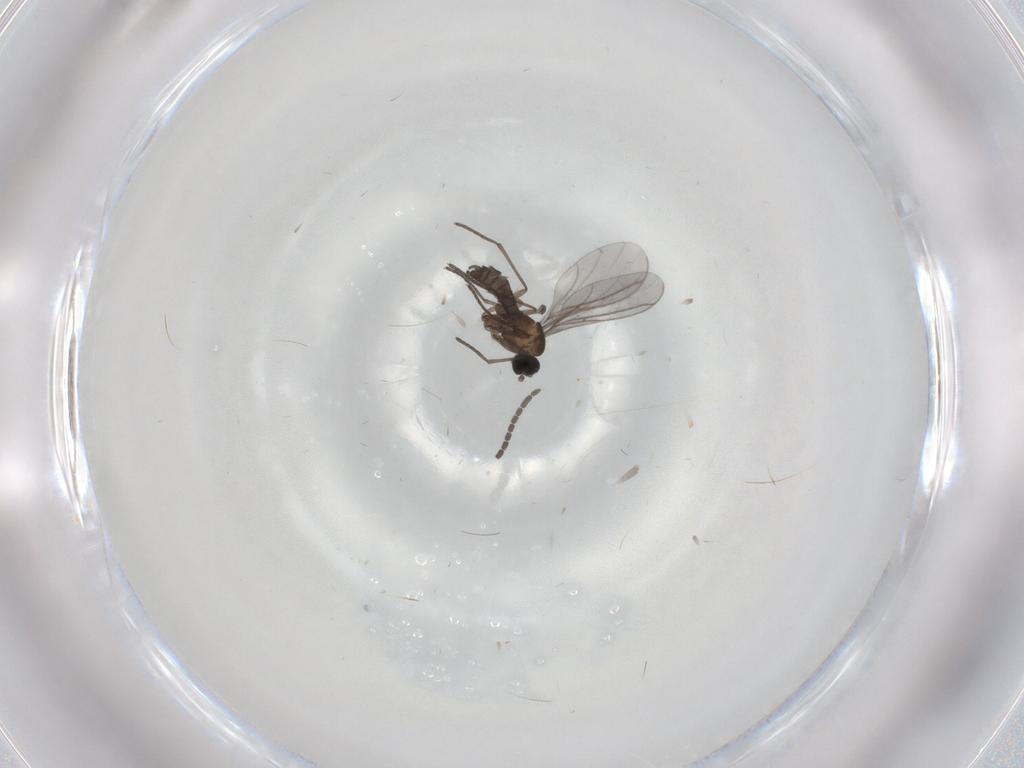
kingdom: Animalia
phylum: Arthropoda
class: Insecta
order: Diptera
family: Sciaridae
